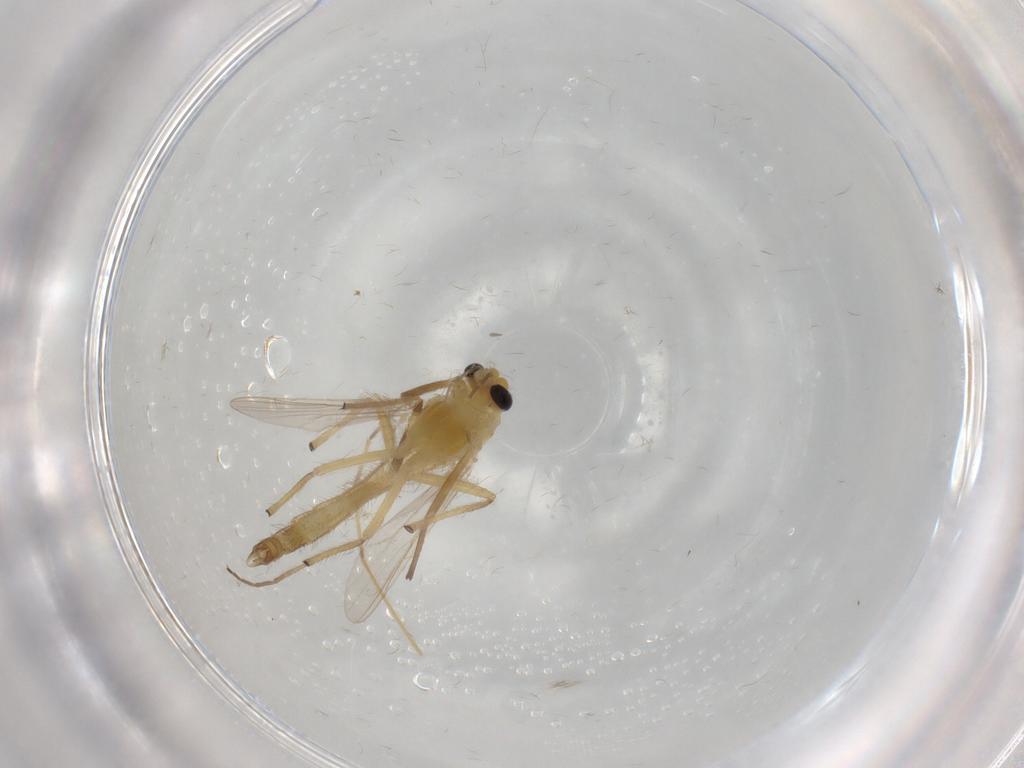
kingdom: Animalia
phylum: Arthropoda
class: Insecta
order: Diptera
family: Chironomidae
